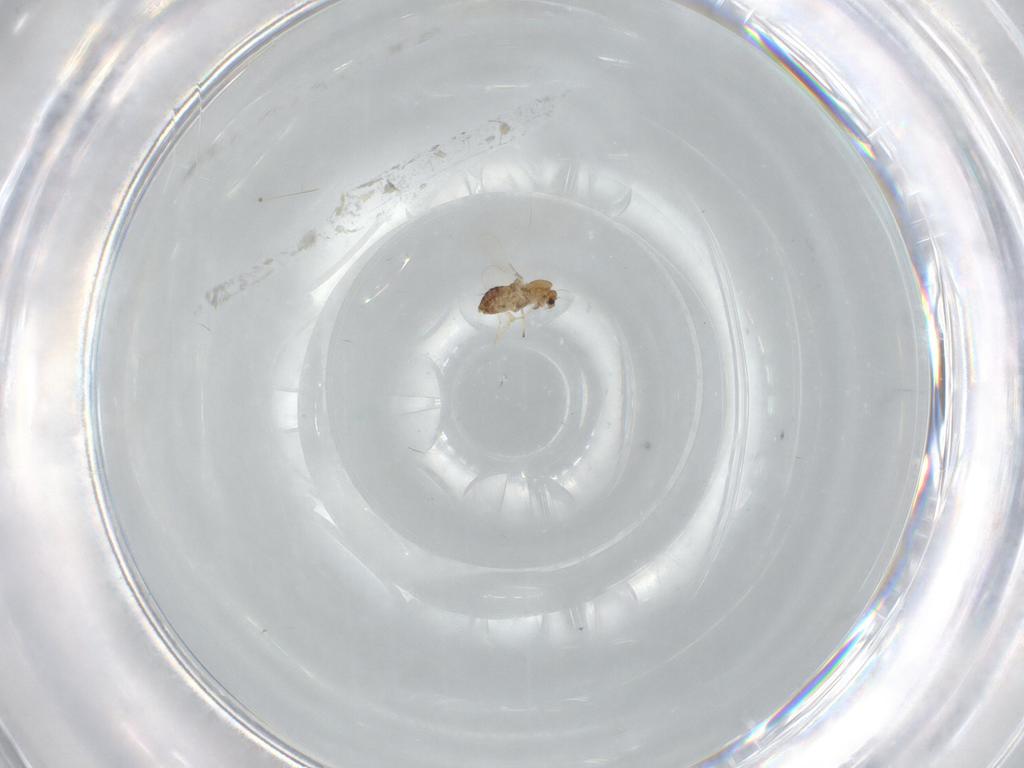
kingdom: Animalia
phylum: Arthropoda
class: Insecta
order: Diptera
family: Chironomidae
